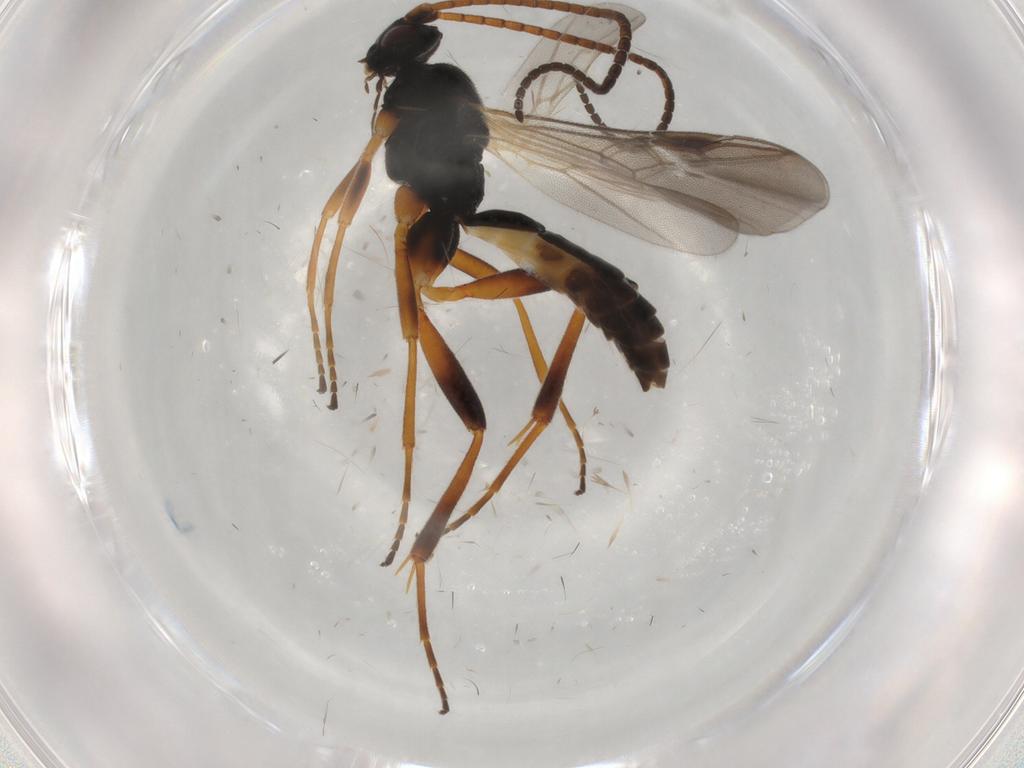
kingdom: Animalia
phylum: Arthropoda
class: Insecta
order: Hymenoptera
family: Braconidae
